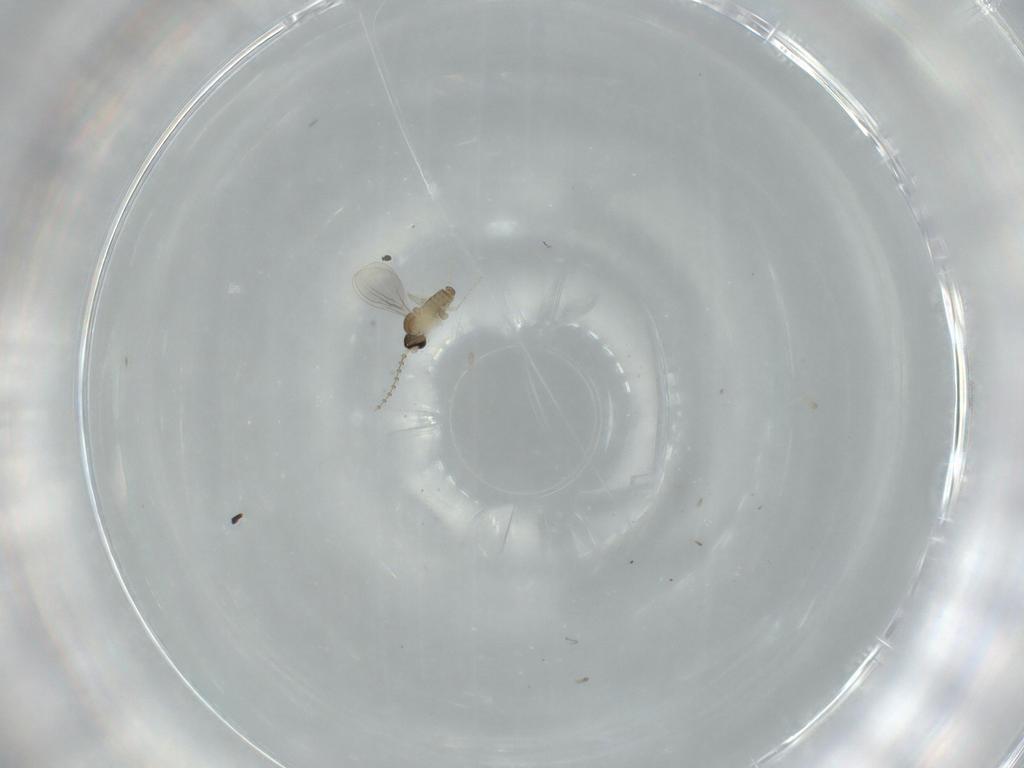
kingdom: Animalia
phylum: Arthropoda
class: Insecta
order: Diptera
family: Cecidomyiidae
